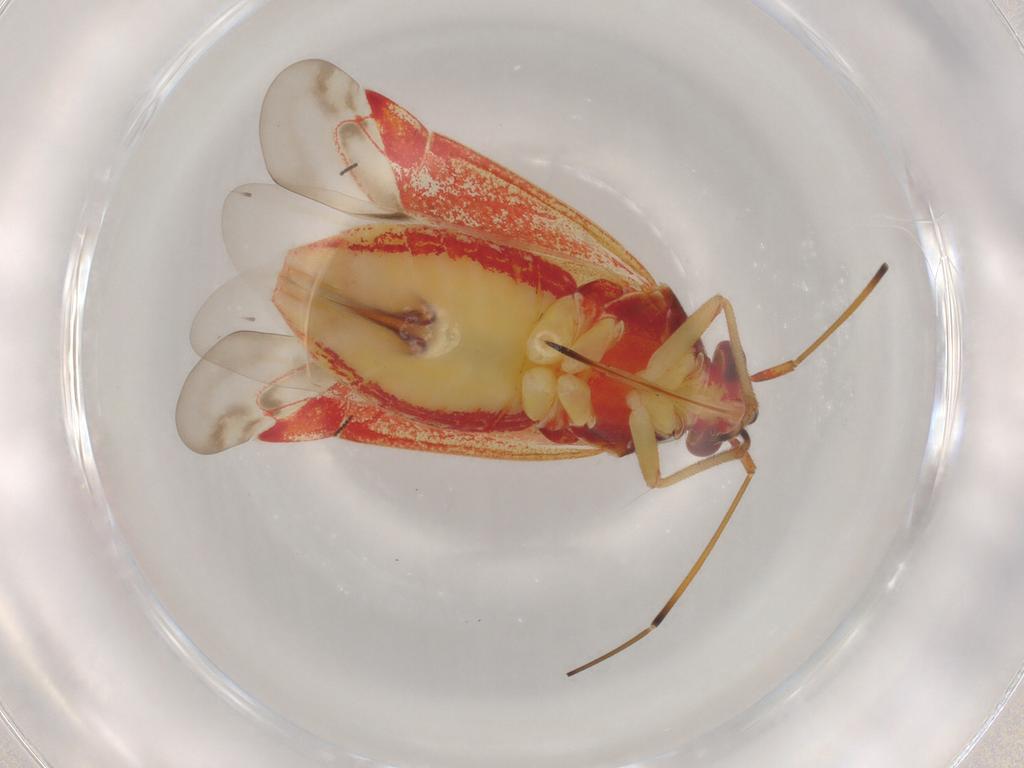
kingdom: Animalia
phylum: Arthropoda
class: Insecta
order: Hemiptera
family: Miridae
